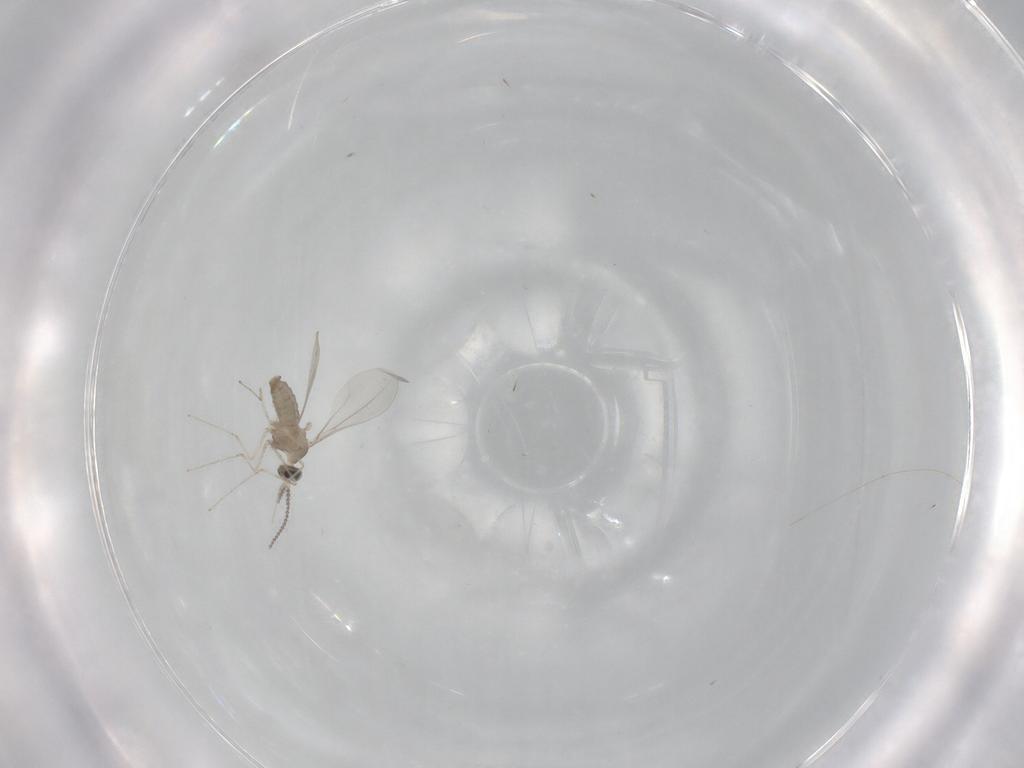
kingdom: Animalia
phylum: Arthropoda
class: Insecta
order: Diptera
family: Cecidomyiidae
